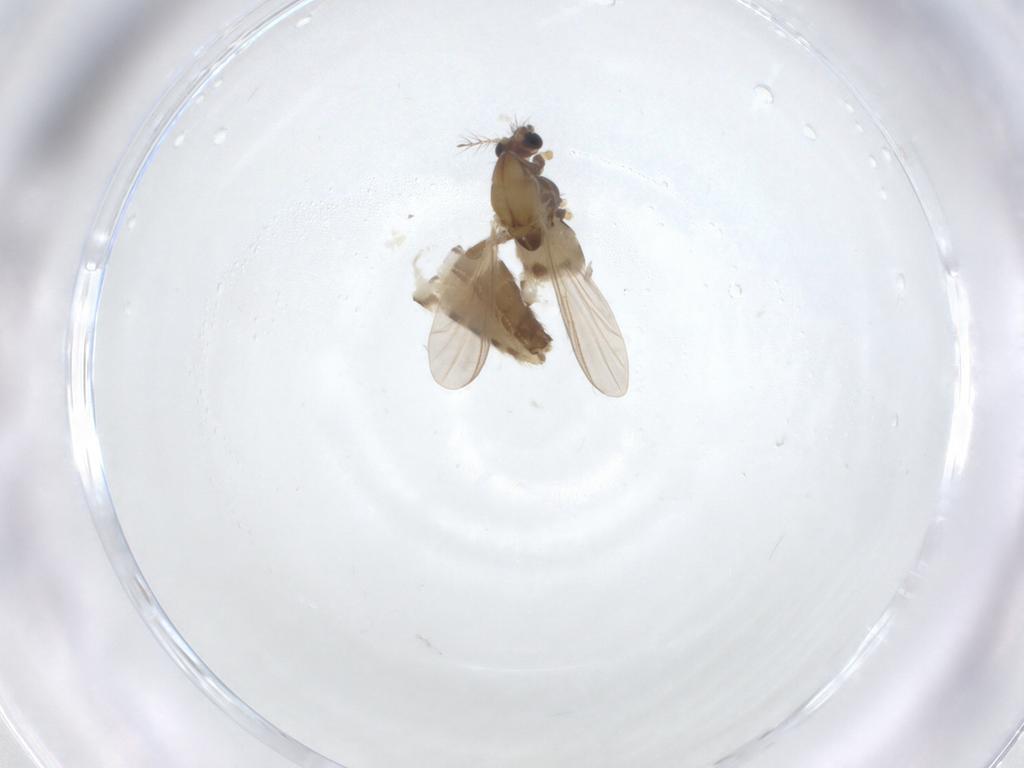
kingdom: Animalia
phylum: Arthropoda
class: Insecta
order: Diptera
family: Chironomidae
